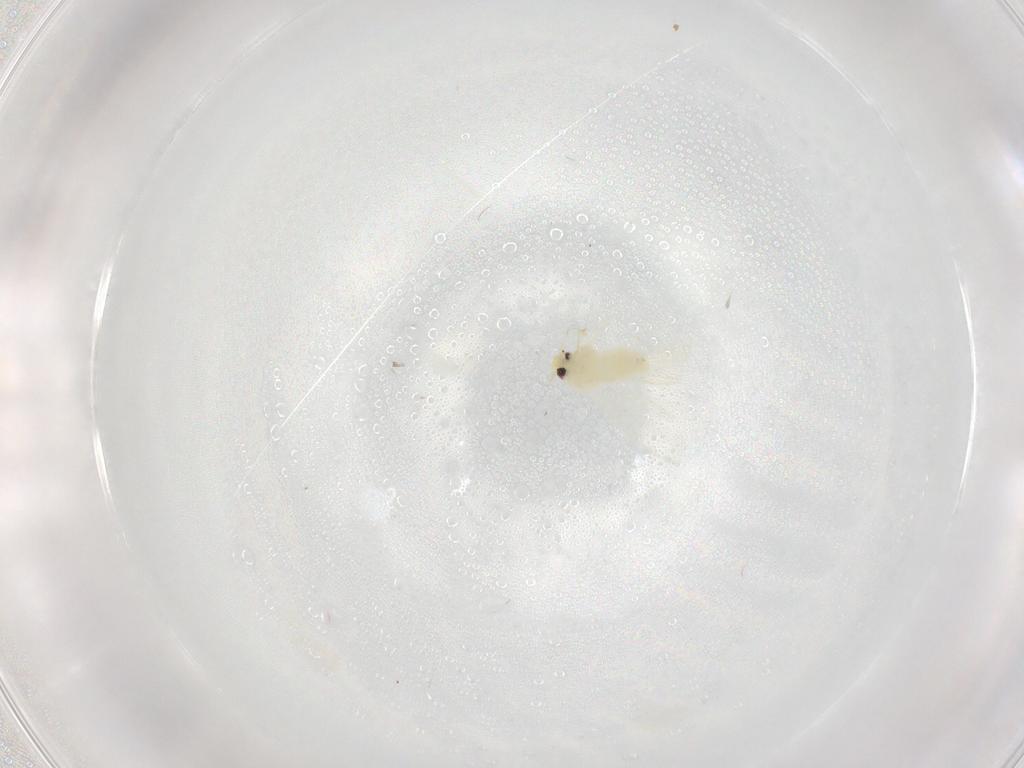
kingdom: Animalia
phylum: Arthropoda
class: Insecta
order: Hemiptera
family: Aleyrodidae
